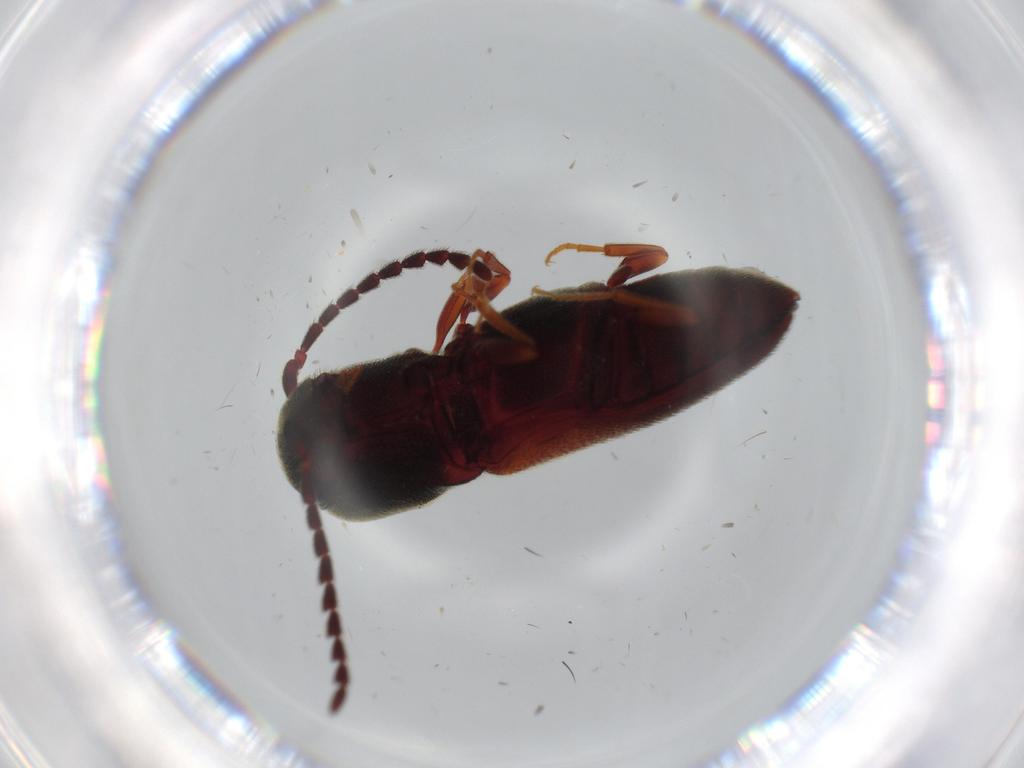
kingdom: Animalia
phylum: Arthropoda
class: Insecta
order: Coleoptera
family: Eucnemidae
